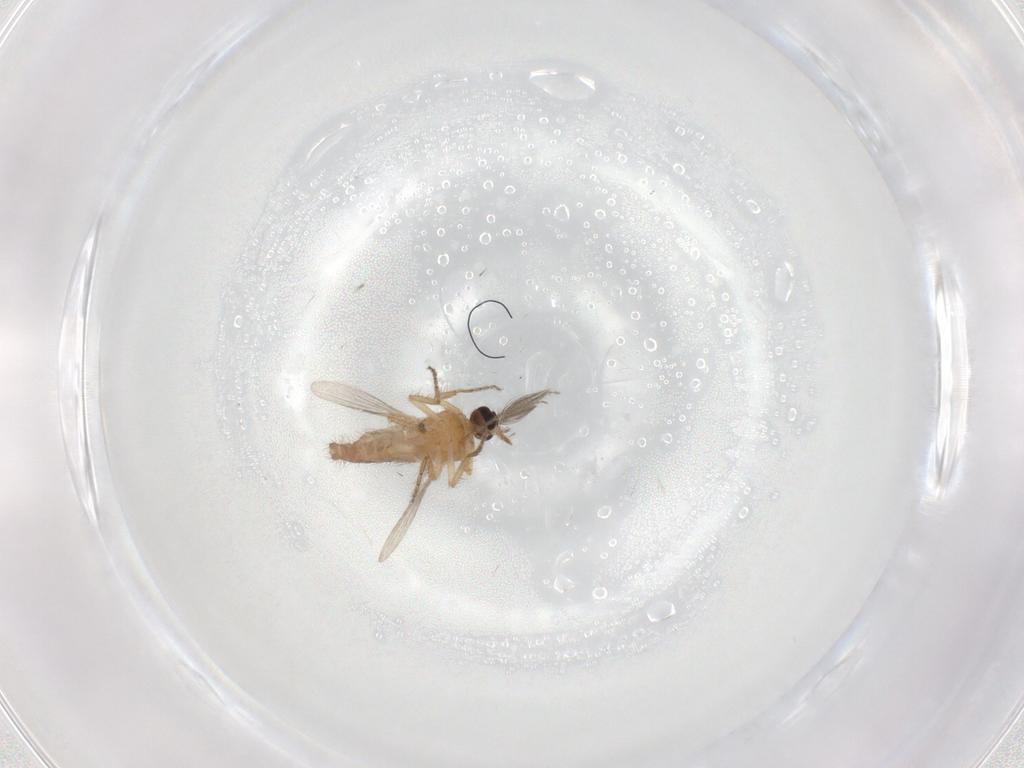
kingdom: Animalia
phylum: Arthropoda
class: Insecta
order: Diptera
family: Ceratopogonidae
